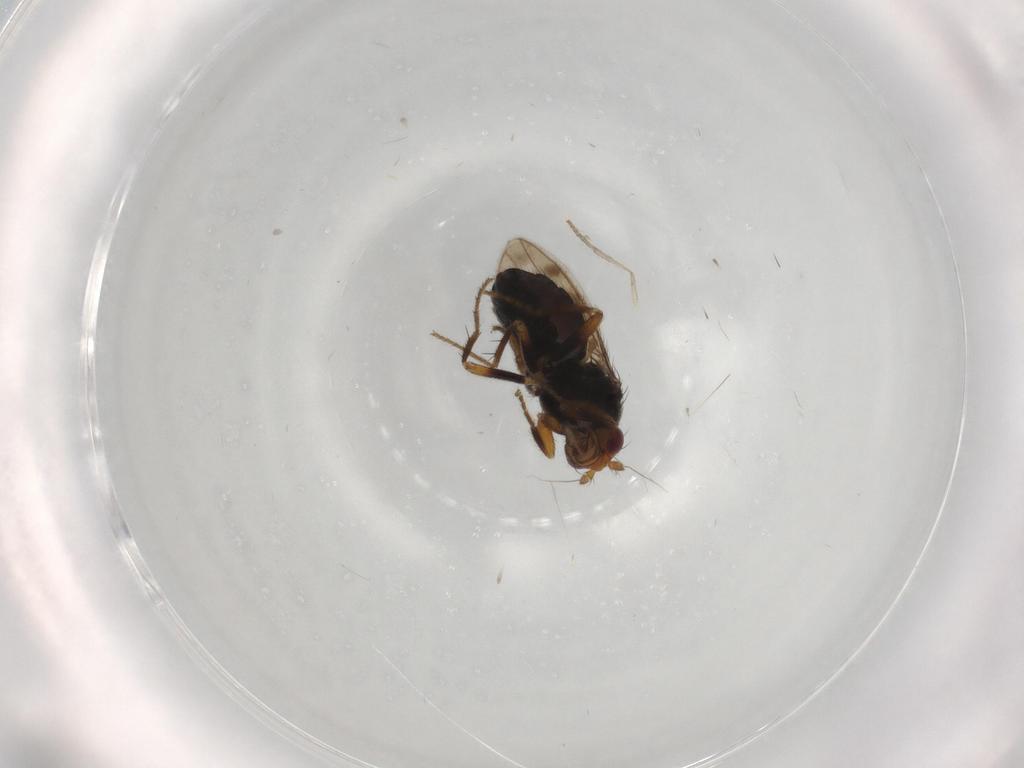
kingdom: Animalia
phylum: Arthropoda
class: Insecta
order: Diptera
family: Sphaeroceridae
